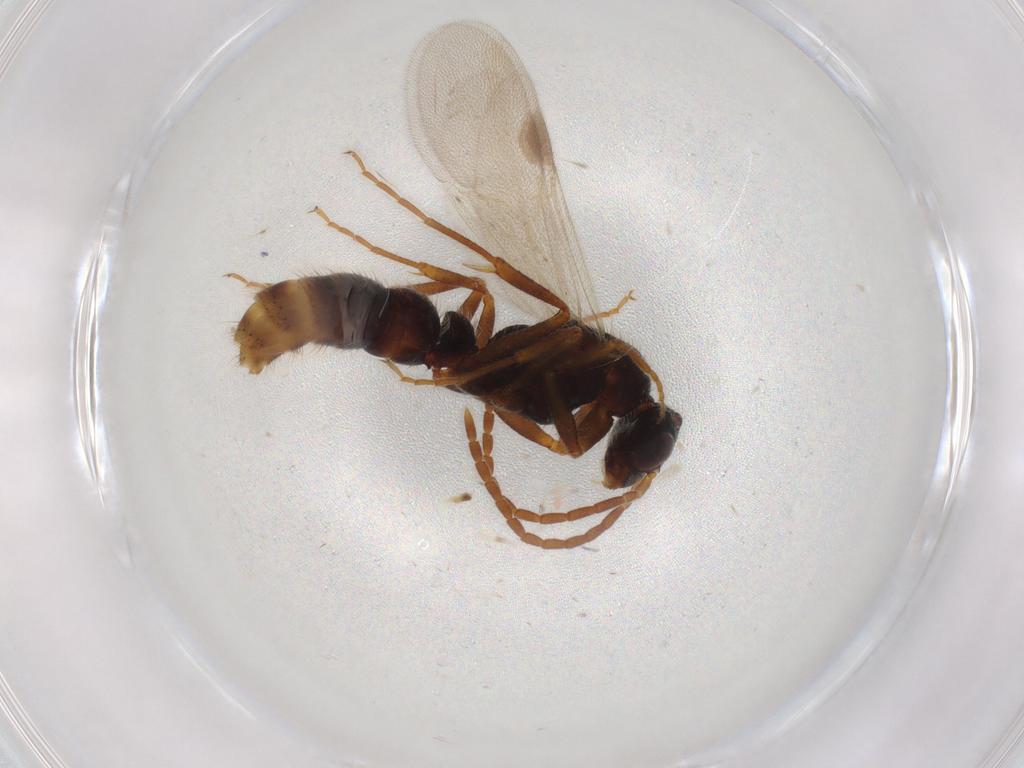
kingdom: Animalia
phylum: Arthropoda
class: Insecta
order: Hymenoptera
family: Formicidae
